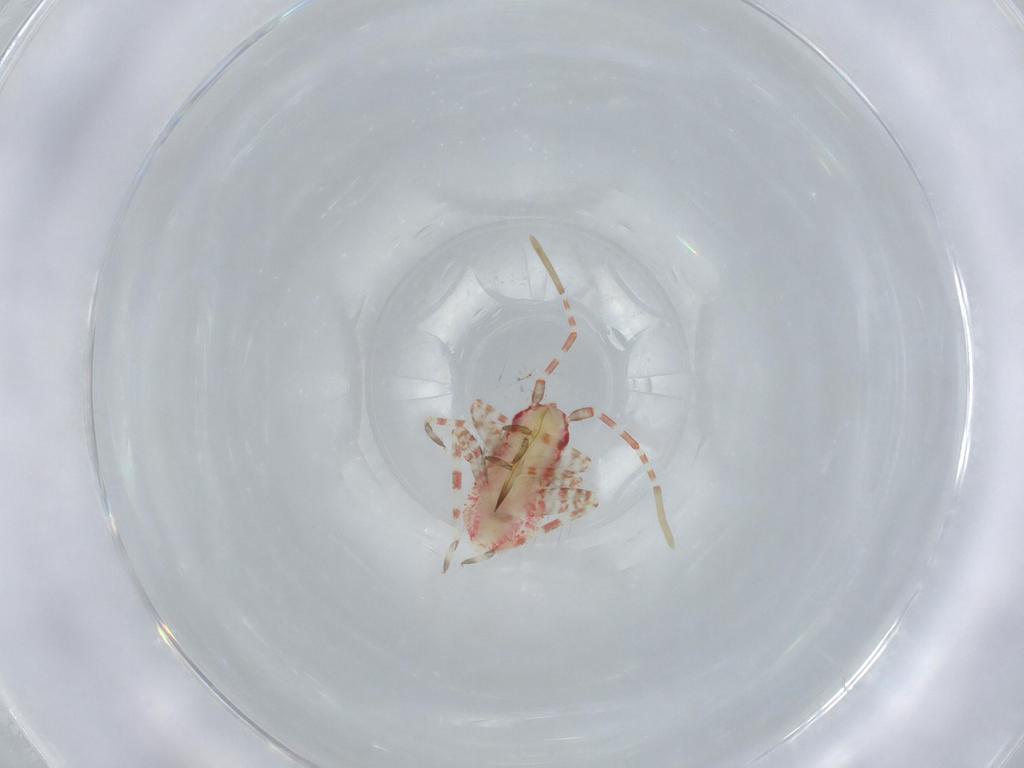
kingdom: Animalia
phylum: Arthropoda
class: Insecta
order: Hemiptera
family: Miridae
